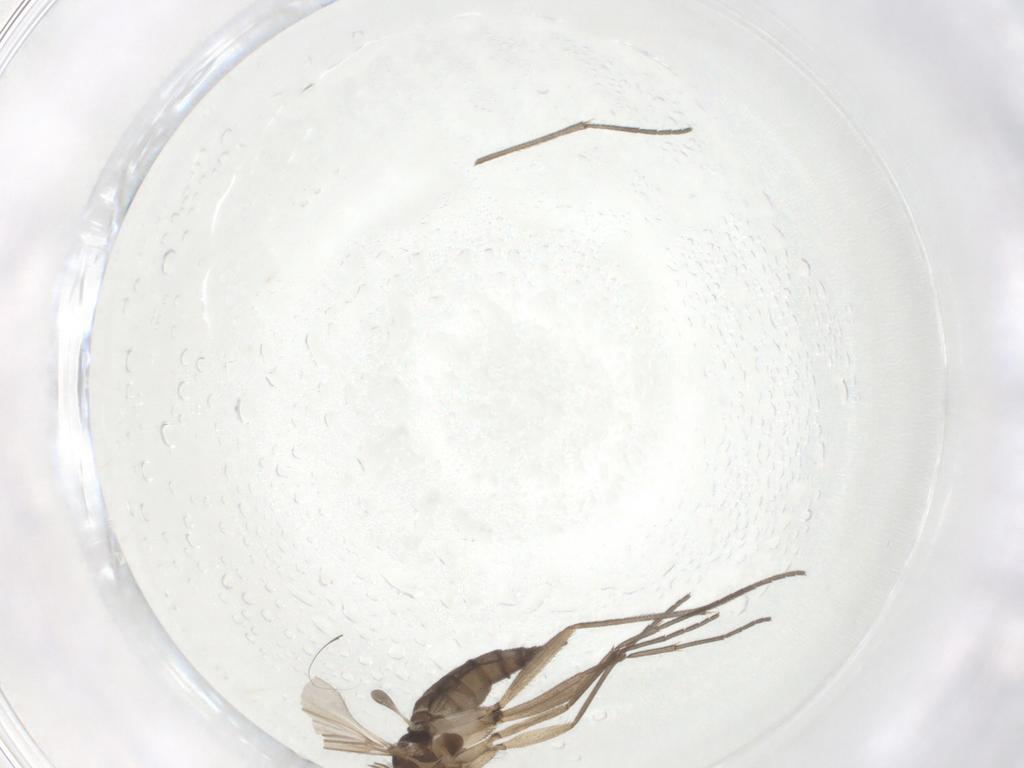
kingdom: Animalia
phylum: Arthropoda
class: Insecta
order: Diptera
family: Sciaridae
